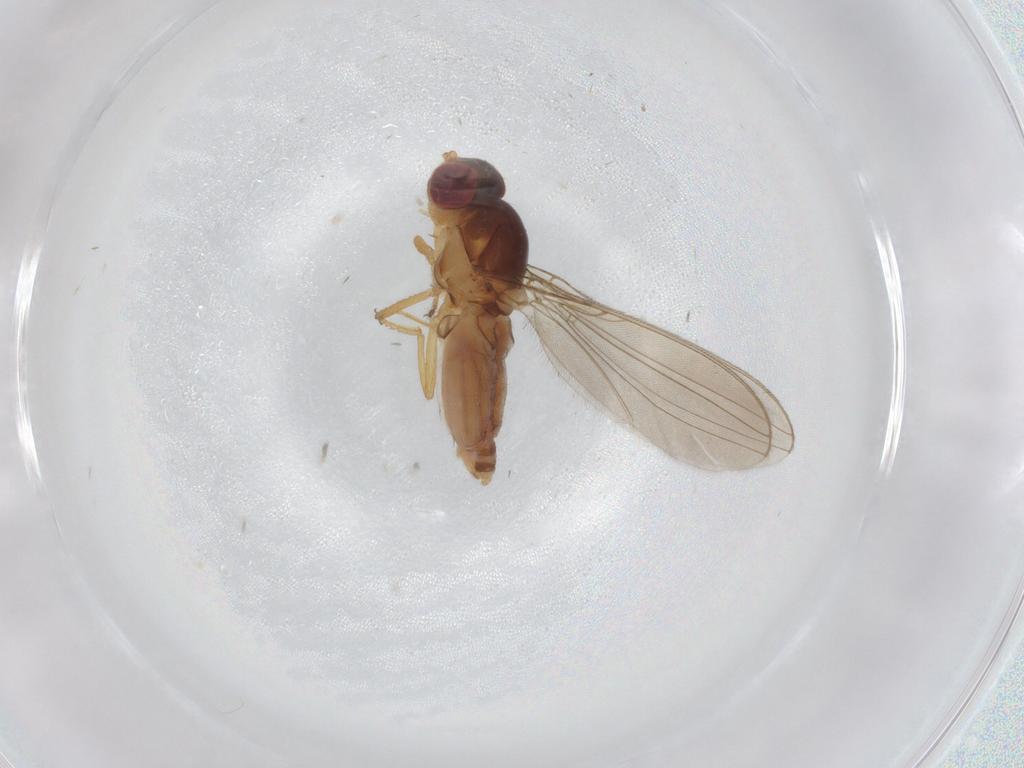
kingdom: Animalia
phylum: Arthropoda
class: Insecta
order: Diptera
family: Asteiidae
